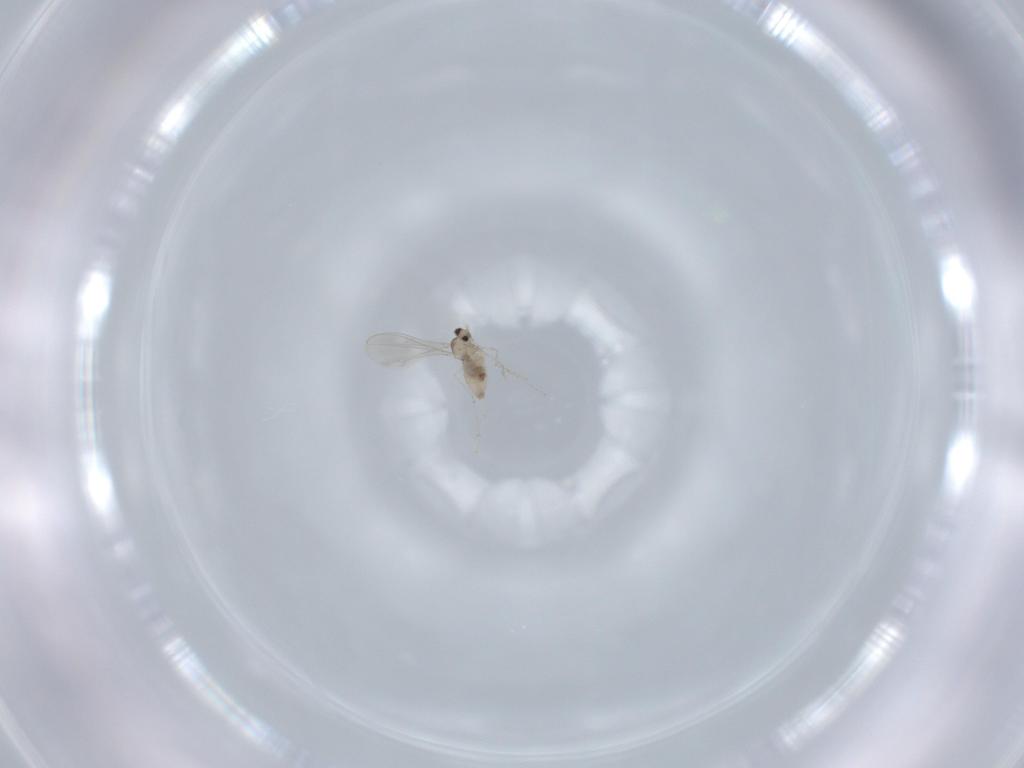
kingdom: Animalia
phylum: Arthropoda
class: Insecta
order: Diptera
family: Cecidomyiidae
